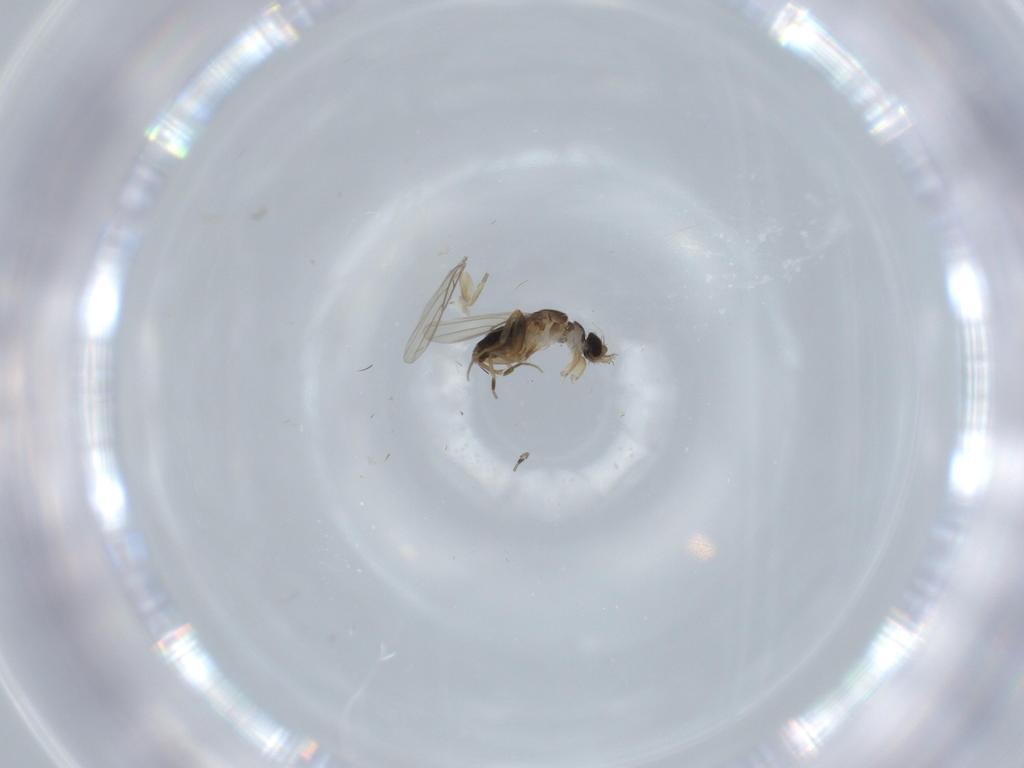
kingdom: Animalia
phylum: Arthropoda
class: Insecta
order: Diptera
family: Phoridae
